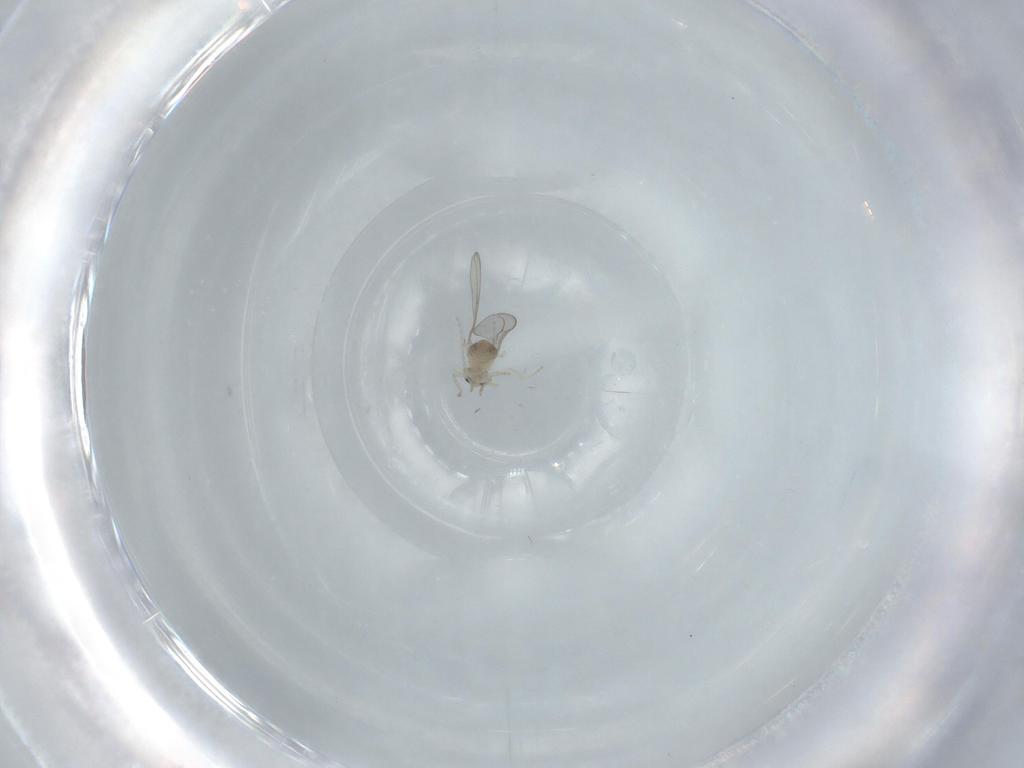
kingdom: Animalia
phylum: Arthropoda
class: Insecta
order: Diptera
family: Cecidomyiidae
